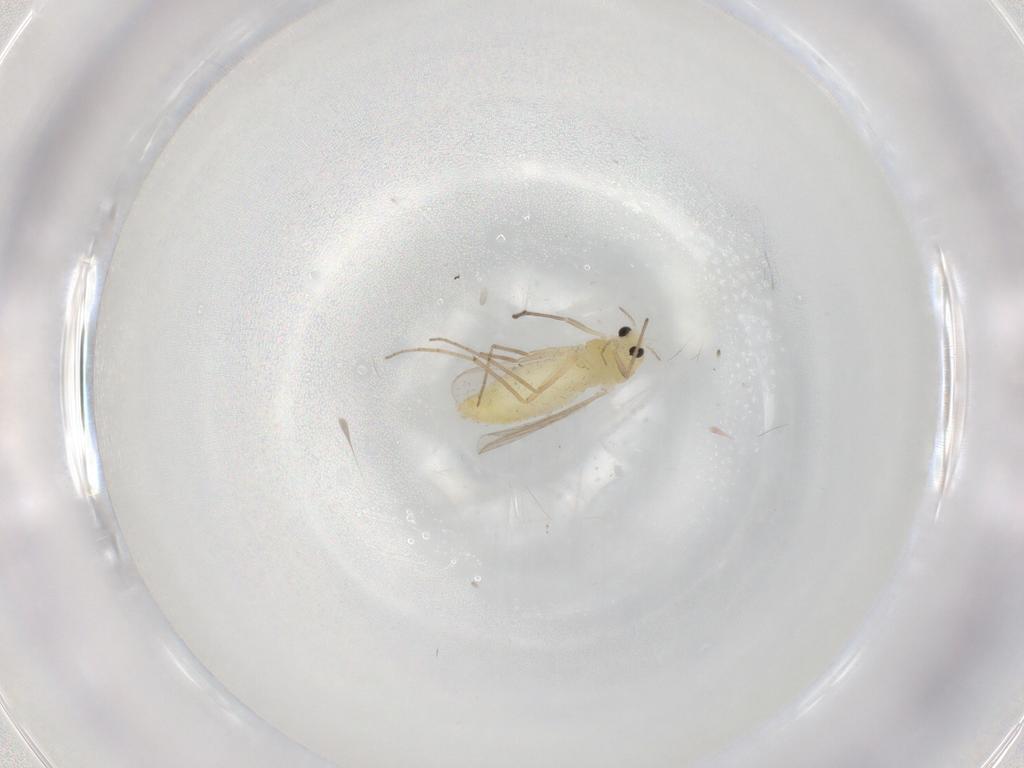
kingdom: Animalia
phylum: Arthropoda
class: Insecta
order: Diptera
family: Chironomidae
